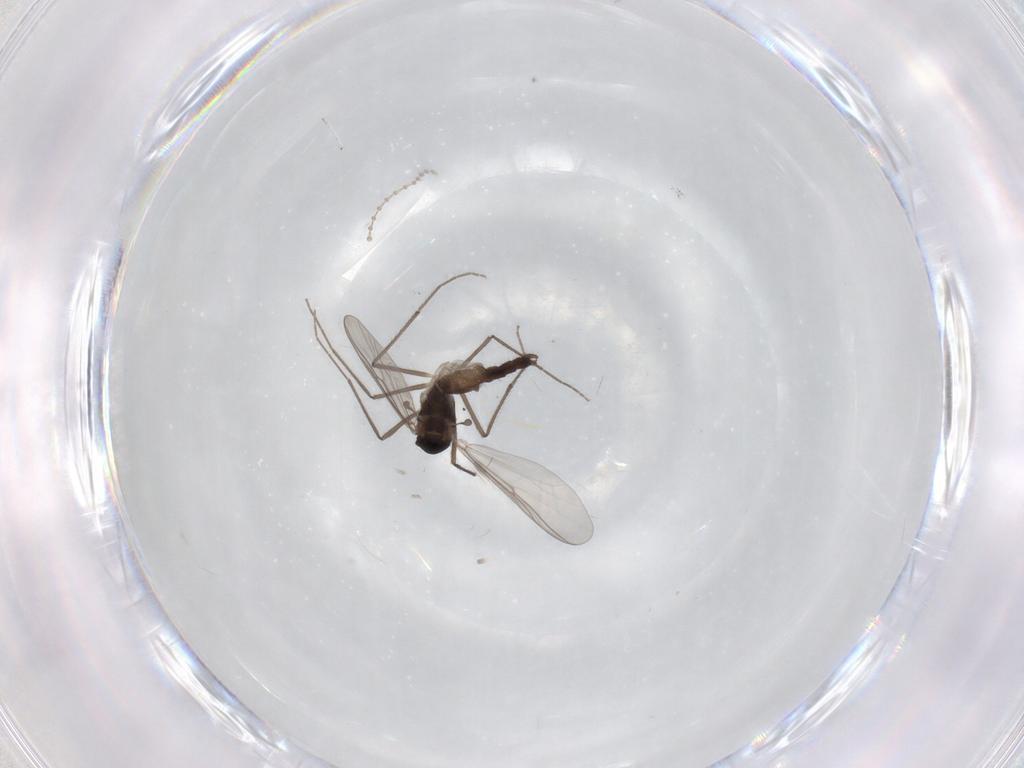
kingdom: Animalia
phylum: Arthropoda
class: Insecta
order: Diptera
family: Chironomidae
